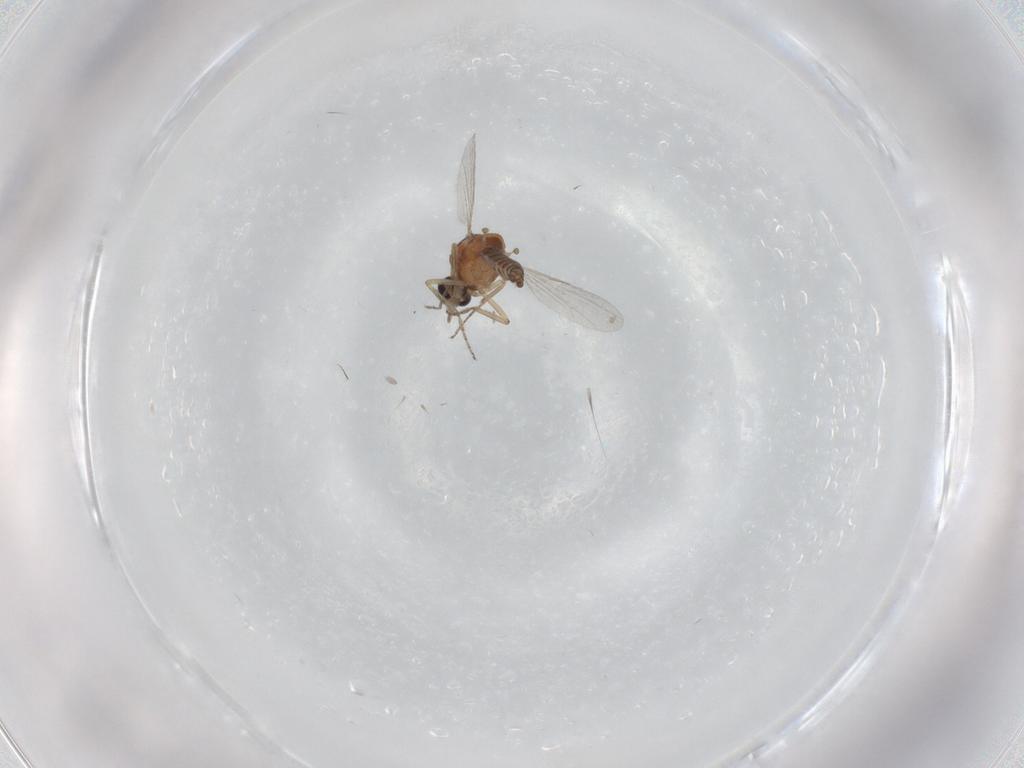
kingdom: Animalia
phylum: Arthropoda
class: Insecta
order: Diptera
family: Ceratopogonidae
